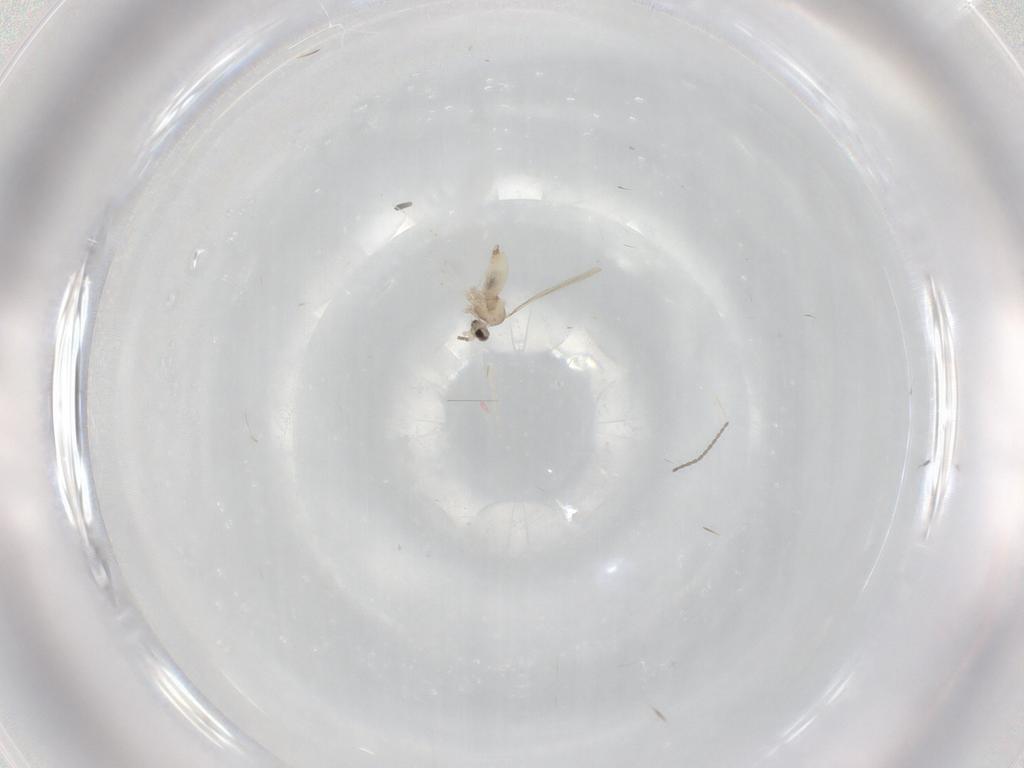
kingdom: Animalia
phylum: Arthropoda
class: Insecta
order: Diptera
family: Cecidomyiidae
